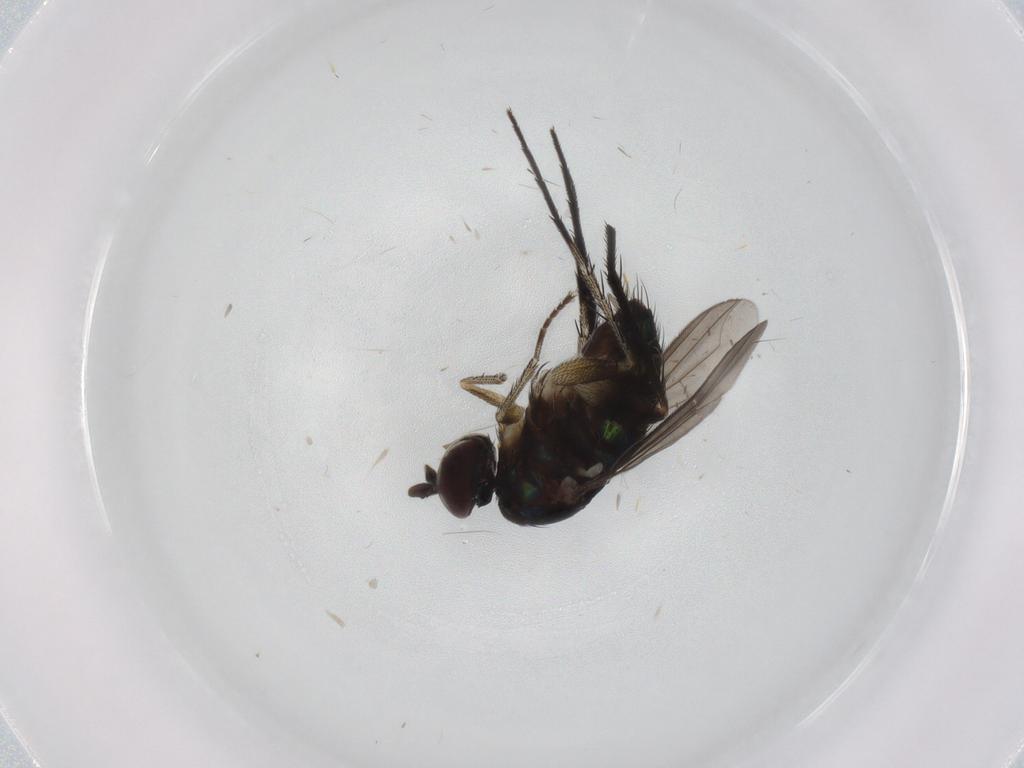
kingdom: Animalia
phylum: Arthropoda
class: Insecta
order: Diptera
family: Dolichopodidae
